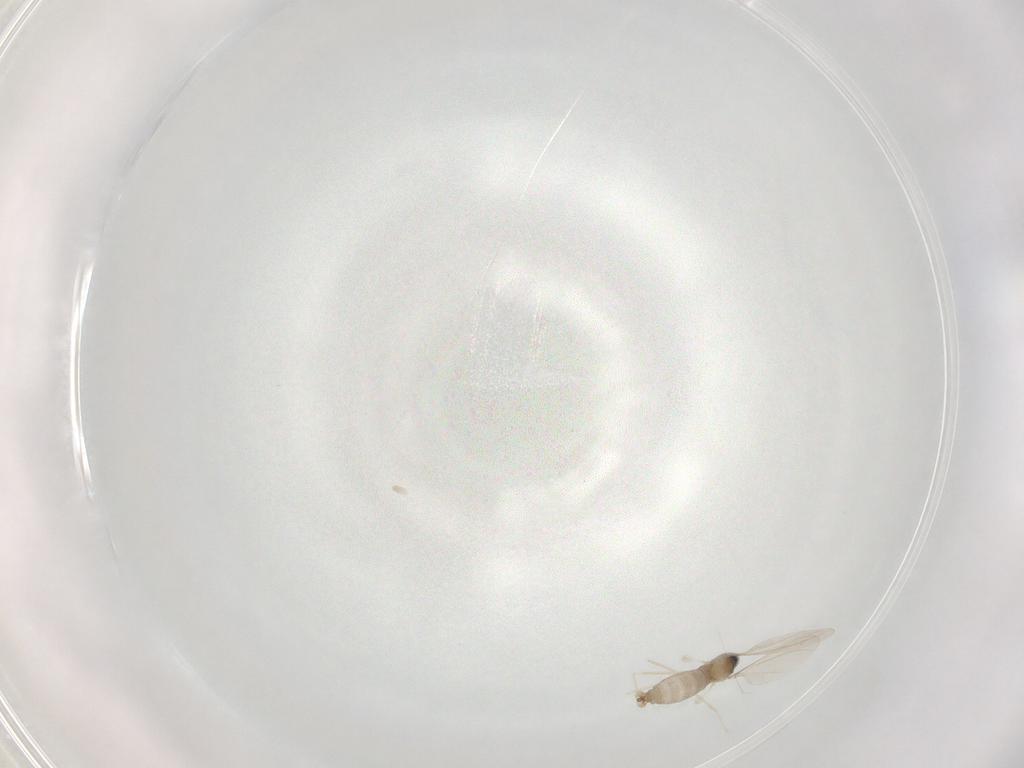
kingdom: Animalia
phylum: Arthropoda
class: Insecta
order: Diptera
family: Cecidomyiidae
